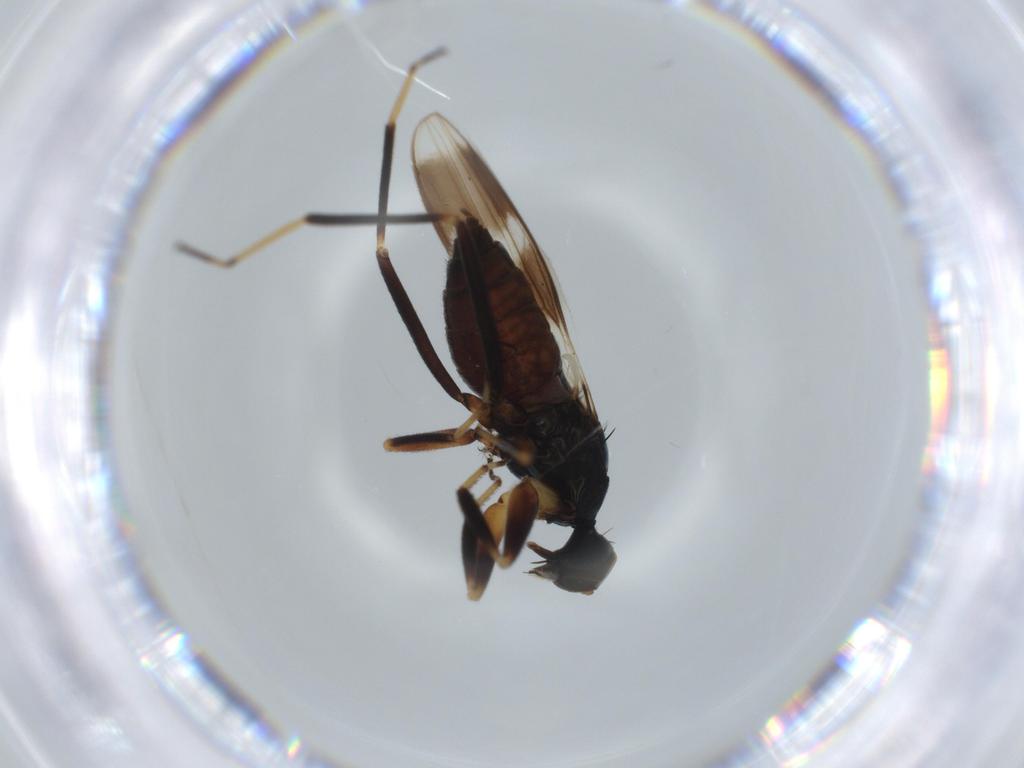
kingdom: Animalia
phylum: Arthropoda
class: Insecta
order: Diptera
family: Hybotidae
